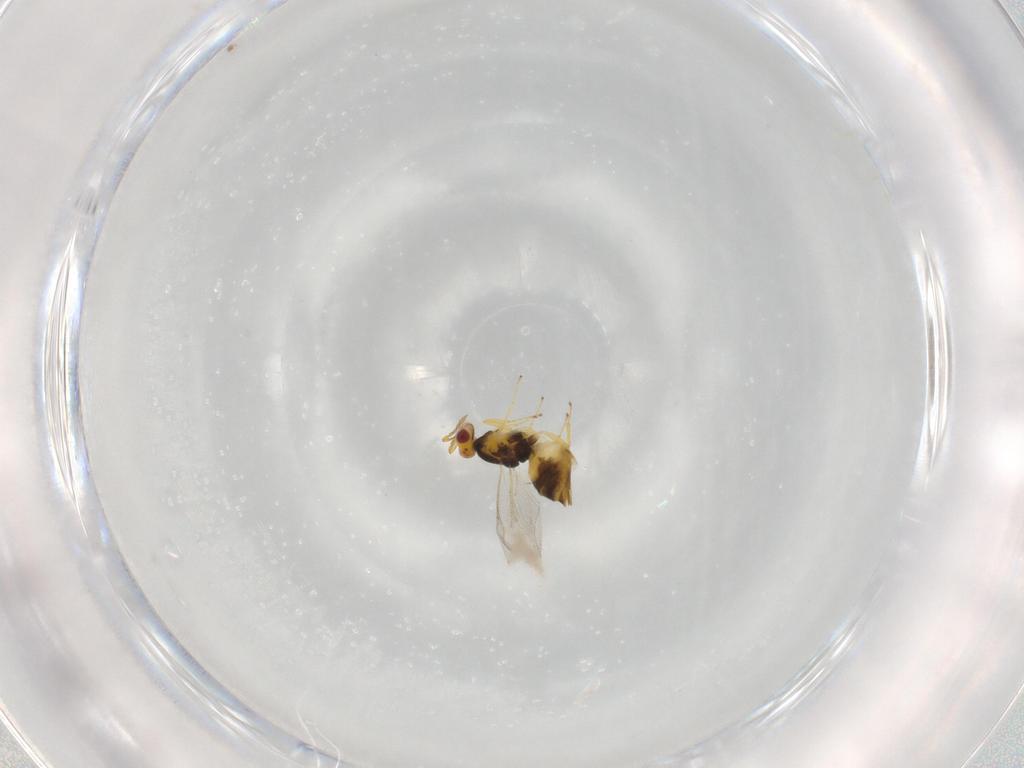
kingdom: Animalia
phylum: Arthropoda
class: Insecta
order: Hymenoptera
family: Eulophidae
